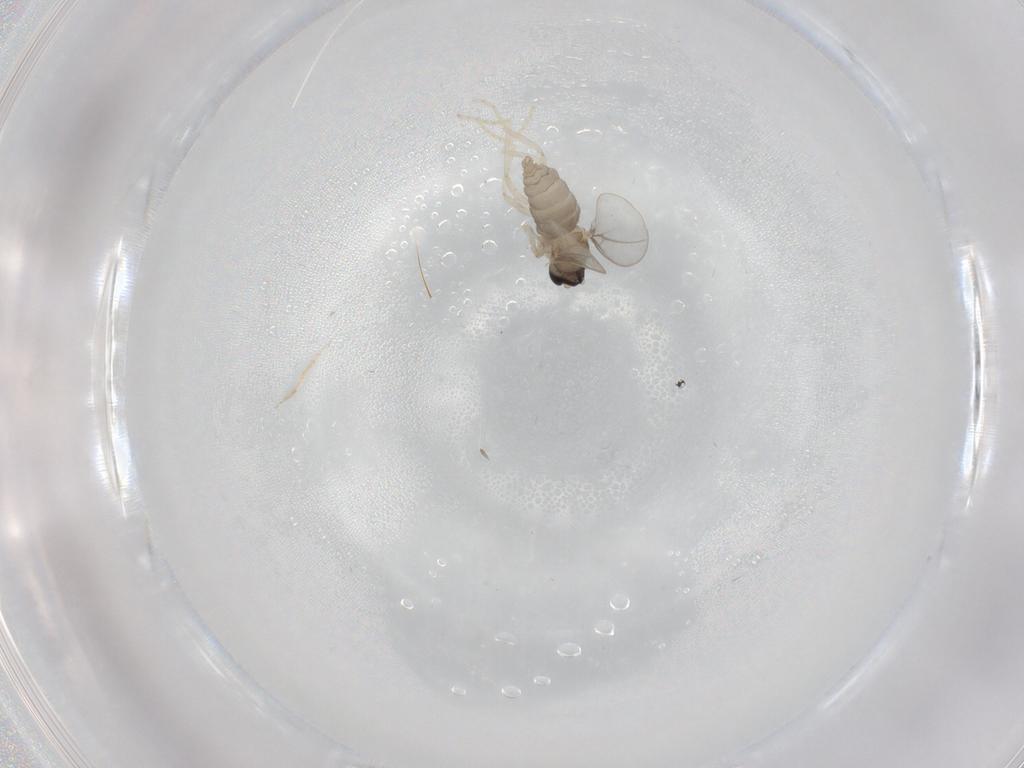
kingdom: Animalia
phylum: Arthropoda
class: Insecta
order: Diptera
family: Cecidomyiidae
